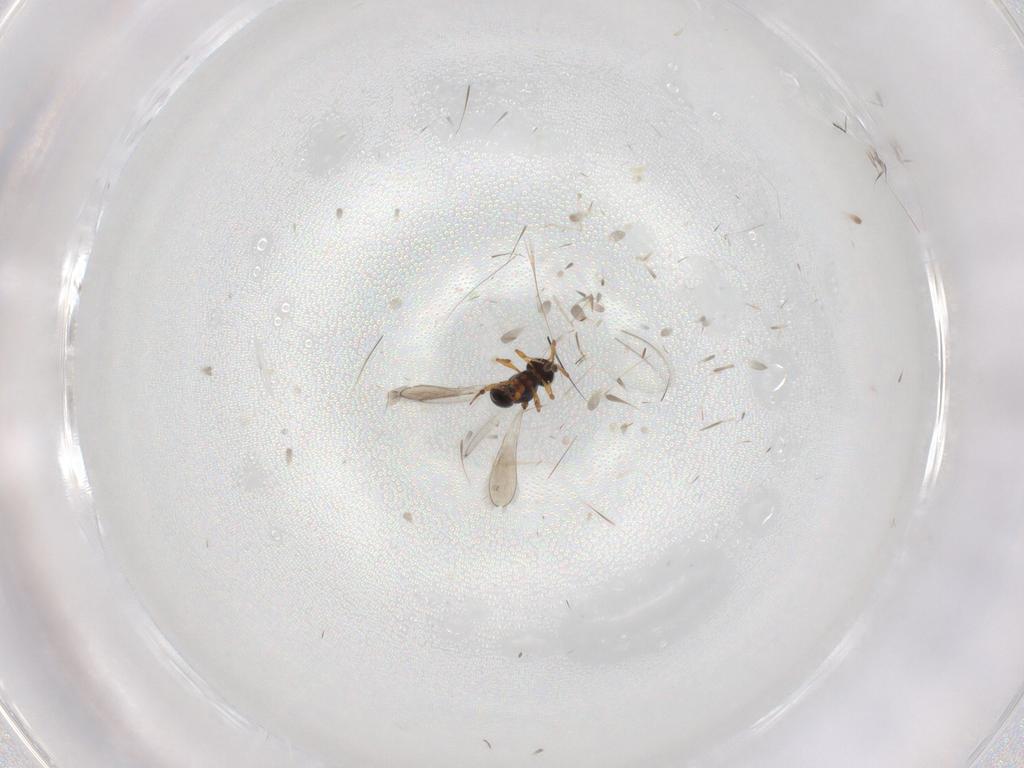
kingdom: Animalia
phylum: Arthropoda
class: Insecta
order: Hymenoptera
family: Platygastridae
